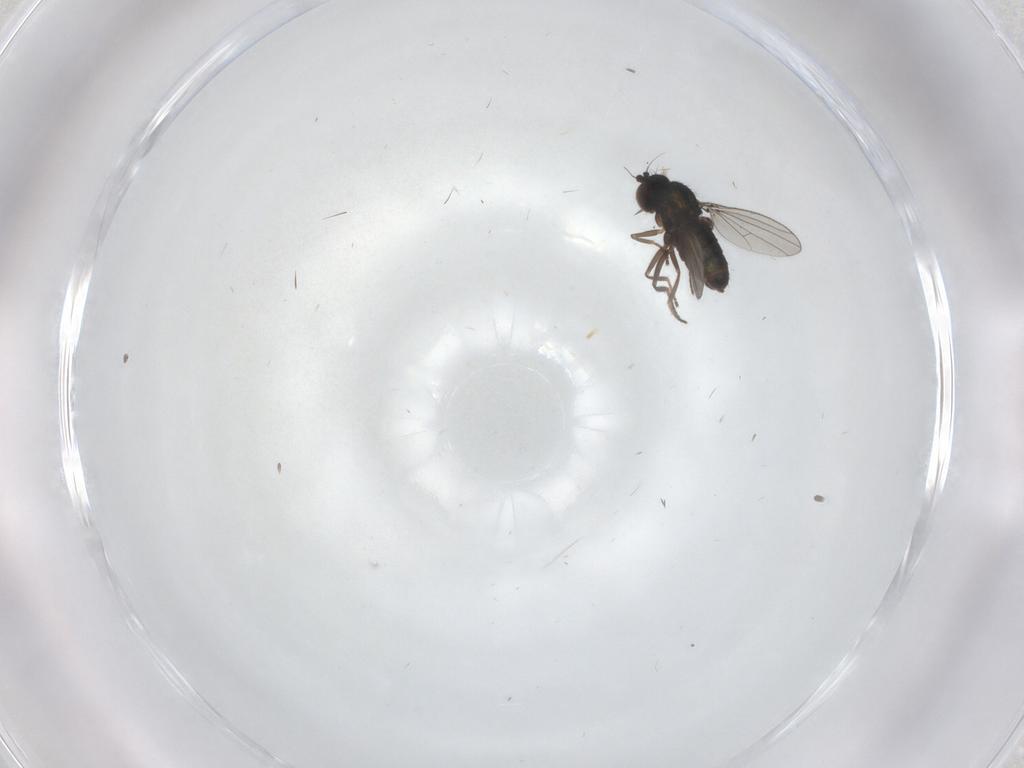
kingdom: Animalia
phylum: Arthropoda
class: Insecta
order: Diptera
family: Dolichopodidae
